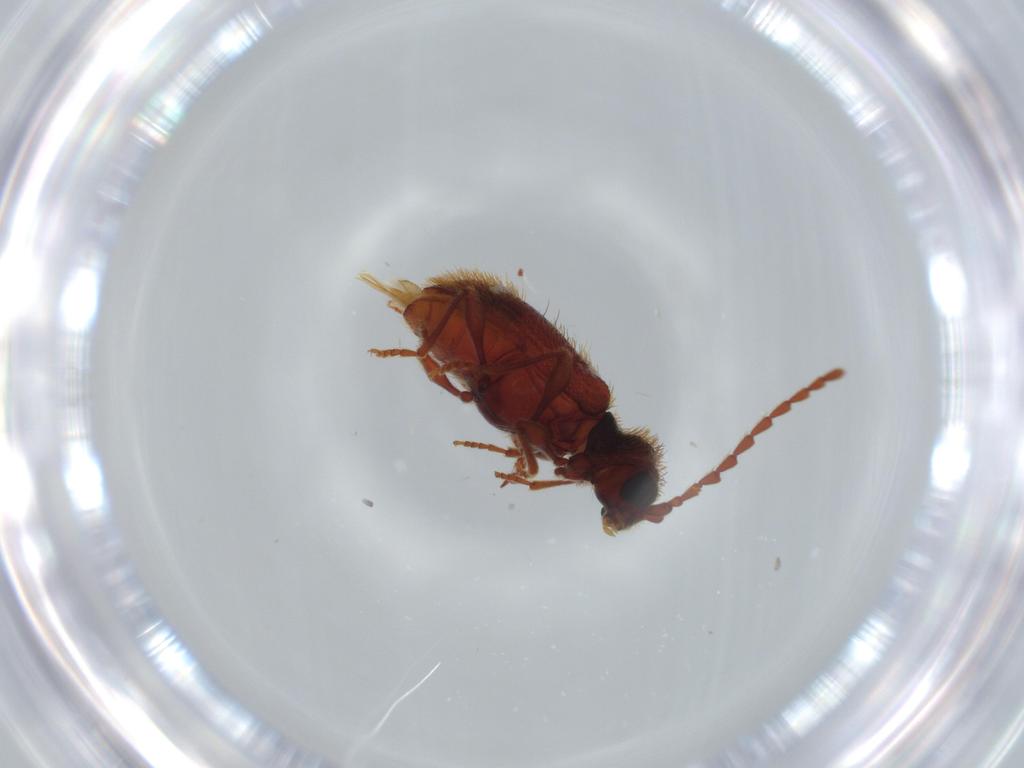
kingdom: Animalia
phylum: Arthropoda
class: Insecta
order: Coleoptera
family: Ptinidae
